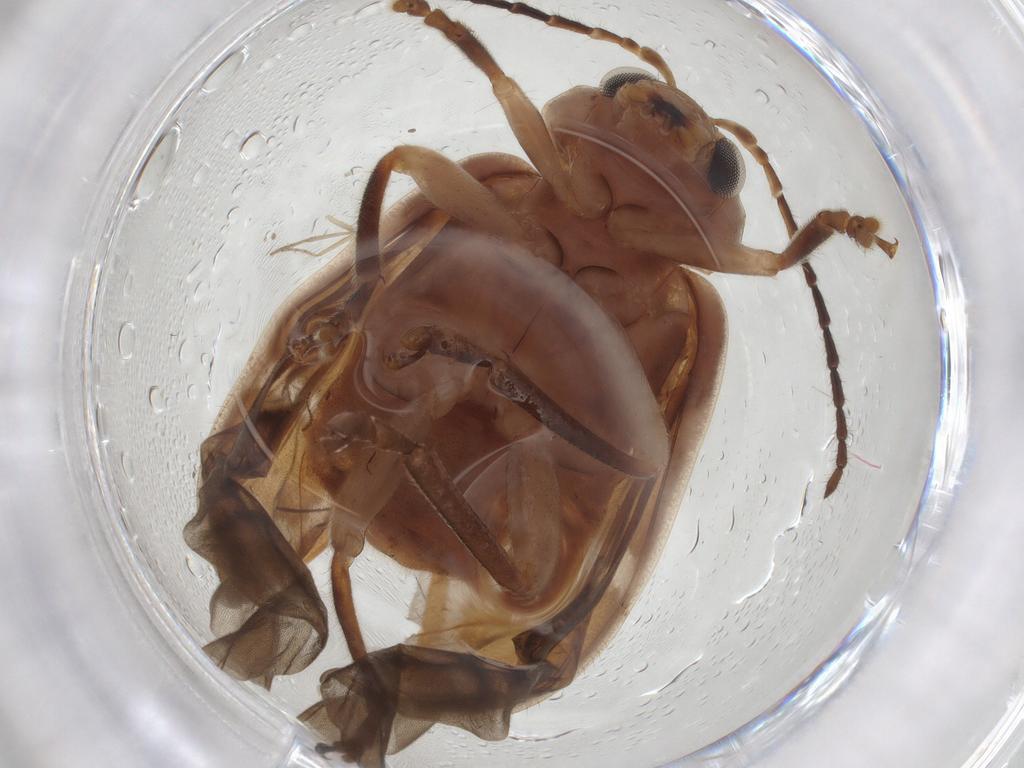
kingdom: Animalia
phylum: Arthropoda
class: Insecta
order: Coleoptera
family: Chrysomelidae
